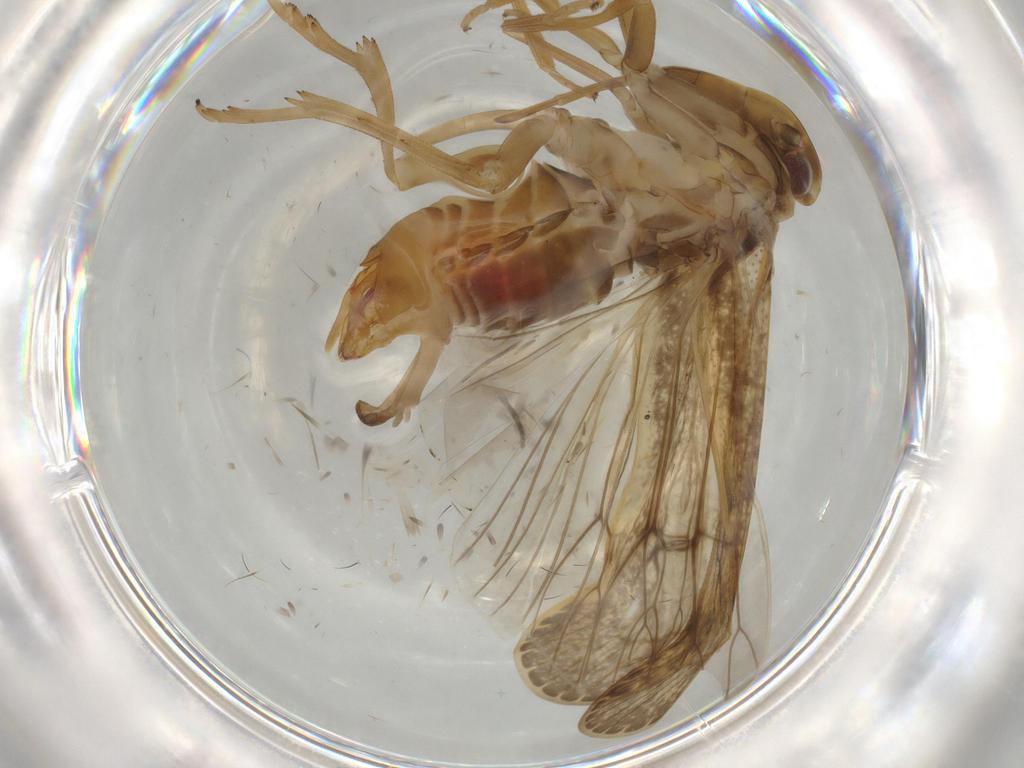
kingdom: Animalia
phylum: Arthropoda
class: Insecta
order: Hemiptera
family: Cixiidae
